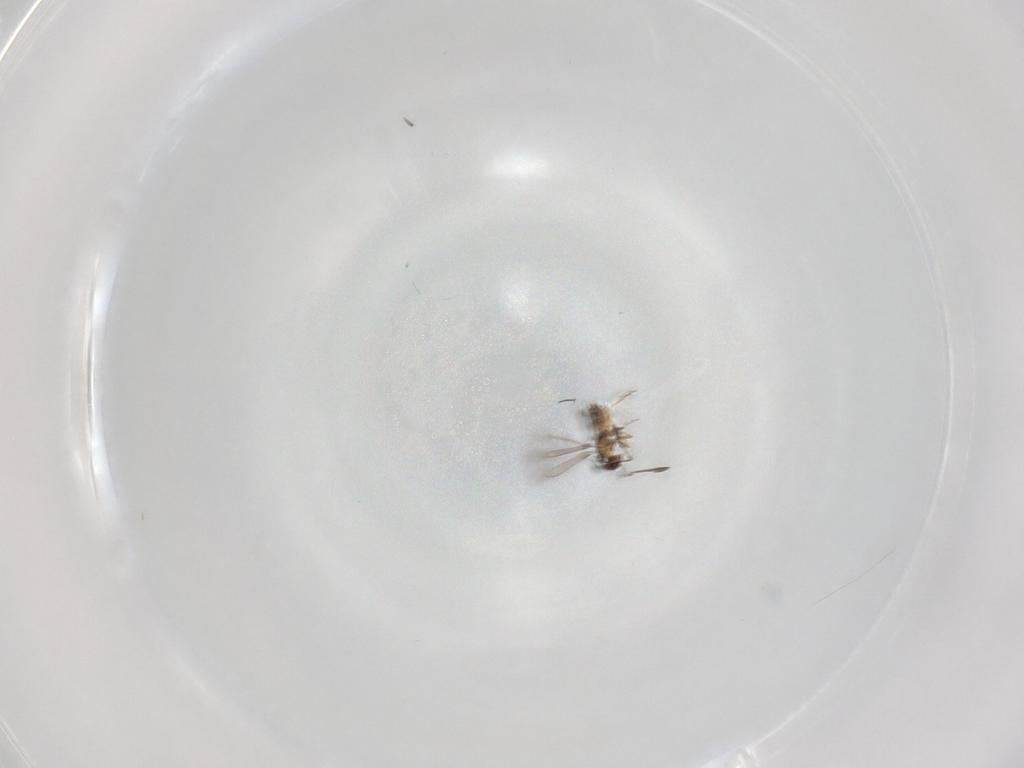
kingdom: Animalia
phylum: Arthropoda
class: Insecta
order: Hymenoptera
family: Mymaridae
